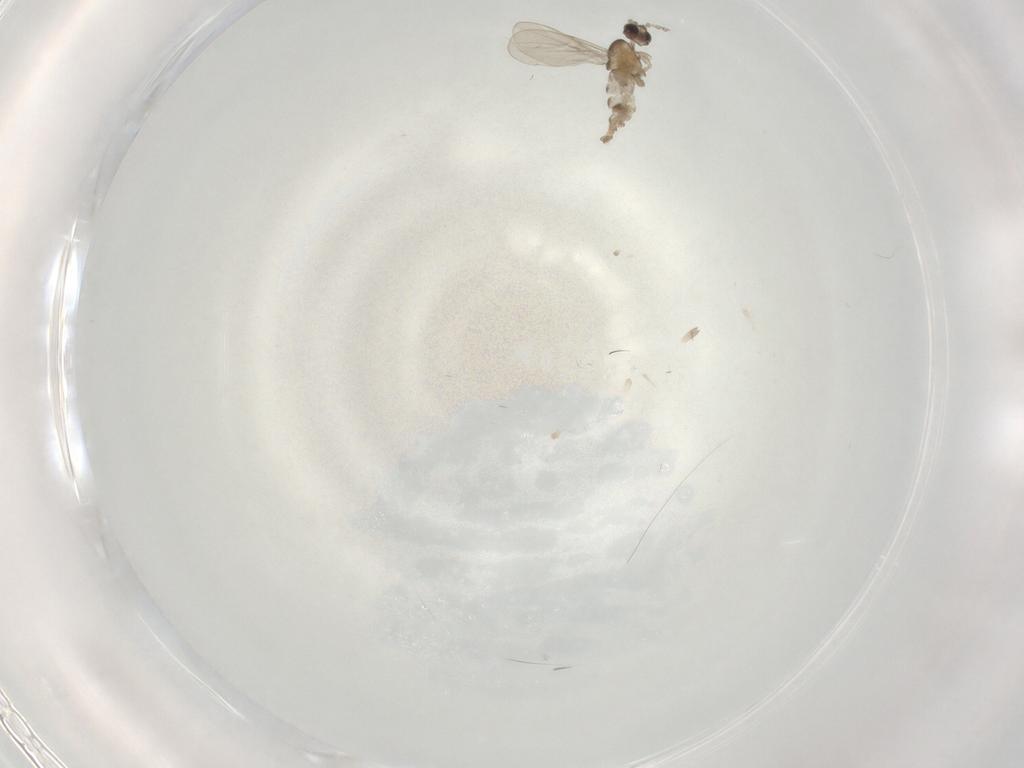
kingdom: Animalia
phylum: Arthropoda
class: Insecta
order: Diptera
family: Cecidomyiidae
